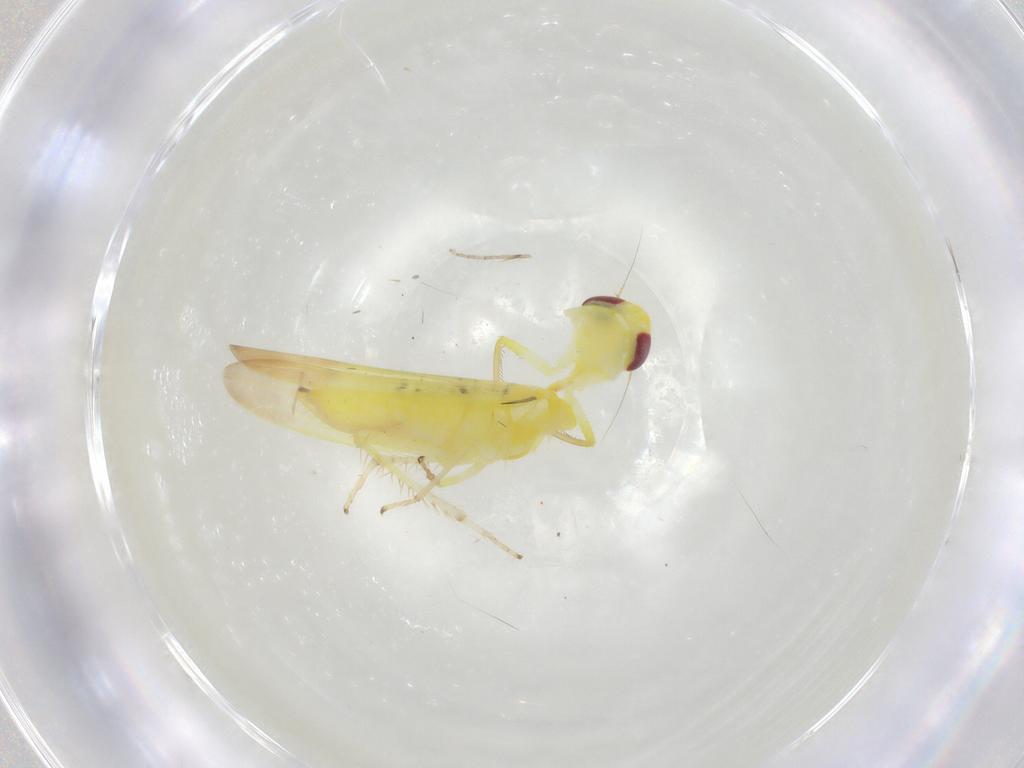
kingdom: Animalia
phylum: Arthropoda
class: Insecta
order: Hemiptera
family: Cicadellidae
